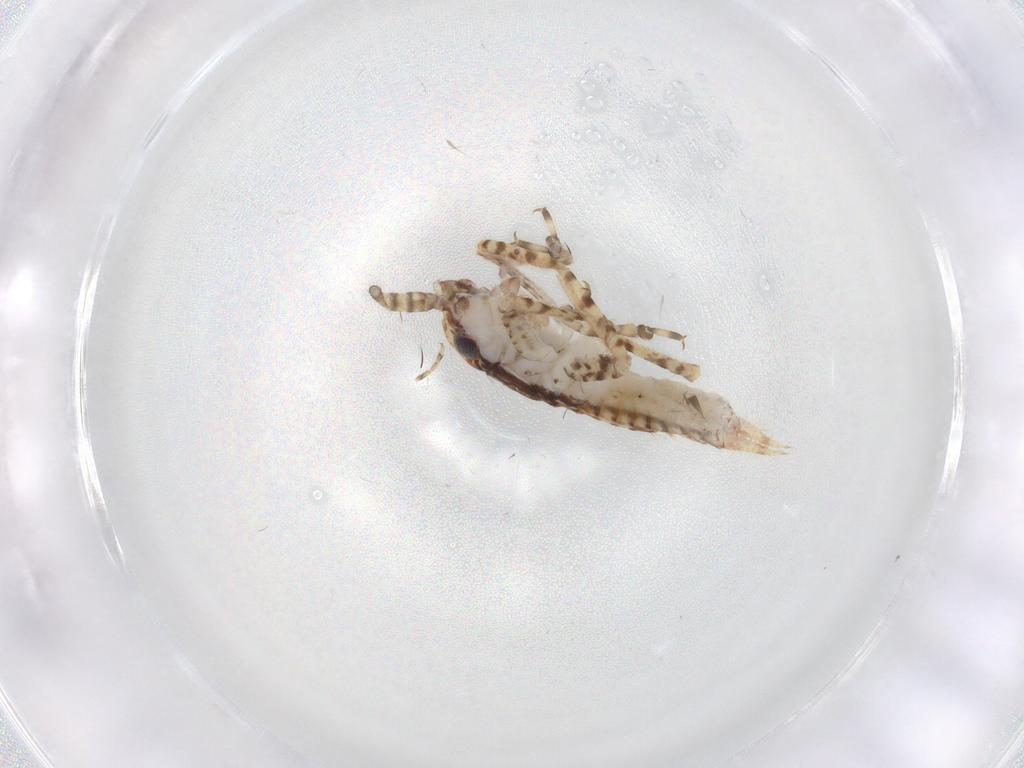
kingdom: Animalia
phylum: Arthropoda
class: Insecta
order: Orthoptera
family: Gryllidae
